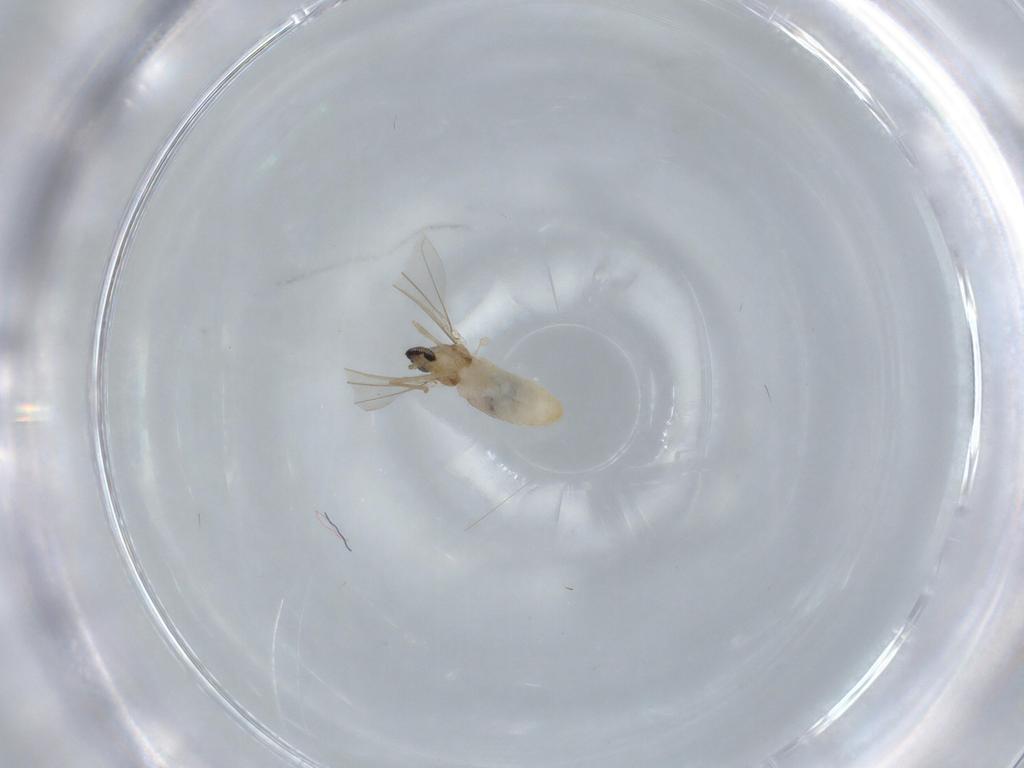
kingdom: Animalia
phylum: Arthropoda
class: Insecta
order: Diptera
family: Cecidomyiidae
